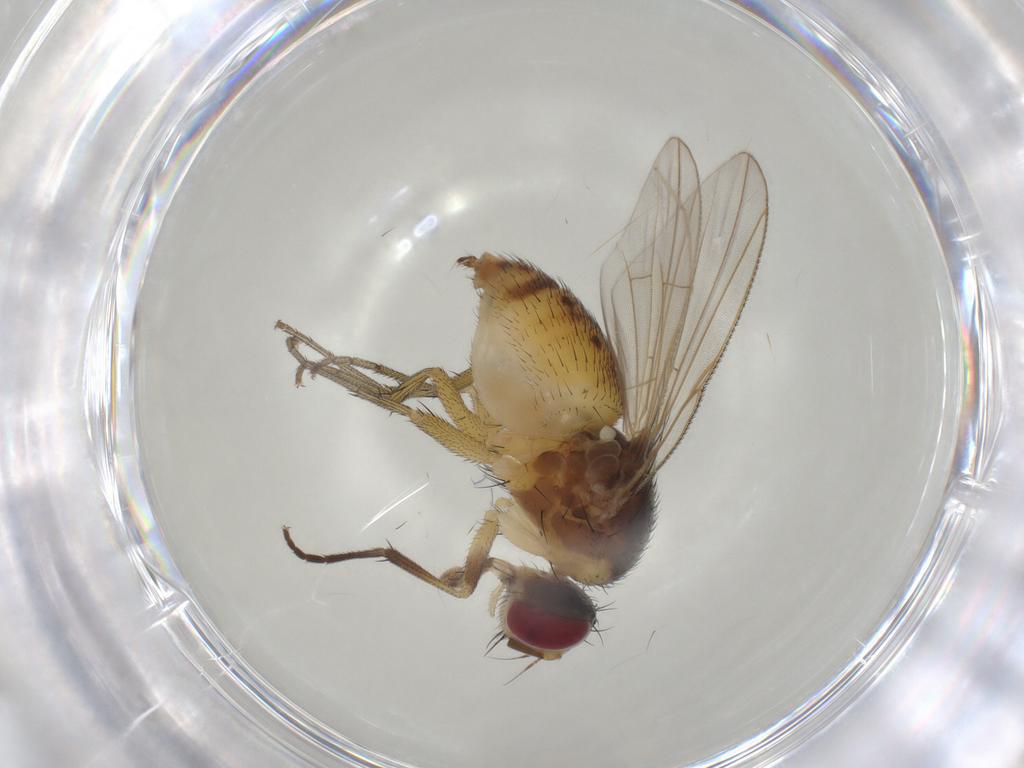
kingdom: Animalia
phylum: Arthropoda
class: Insecta
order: Diptera
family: Muscidae
